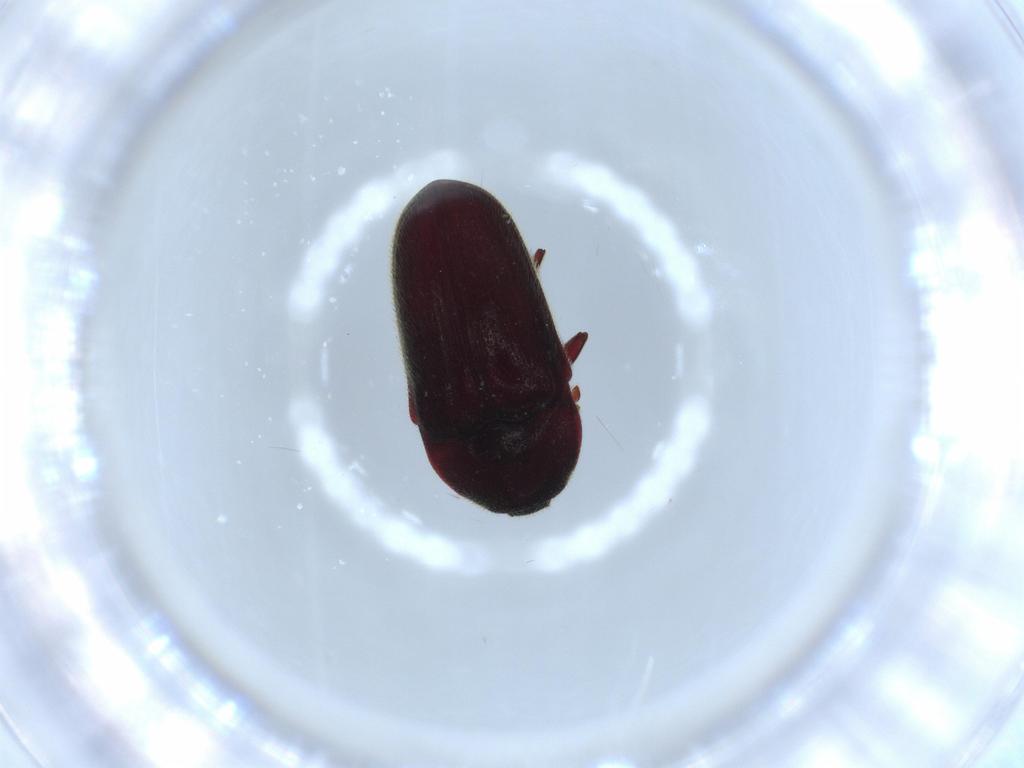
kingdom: Animalia
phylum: Arthropoda
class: Insecta
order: Coleoptera
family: Throscidae
